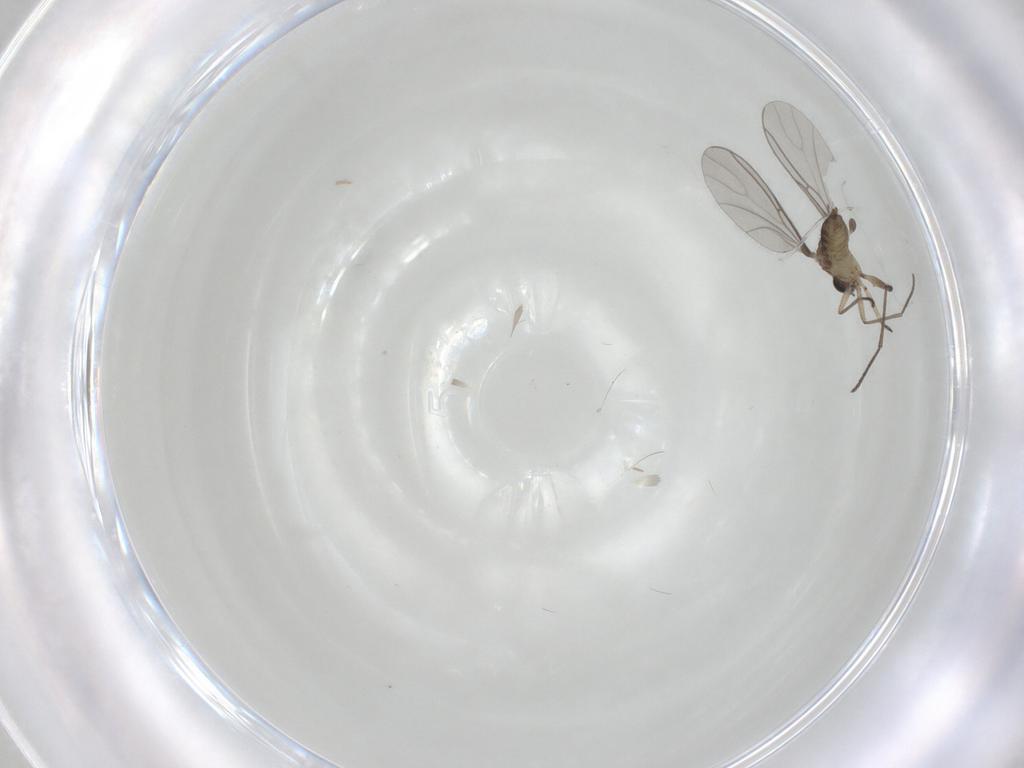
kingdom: Animalia
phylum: Arthropoda
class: Insecta
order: Diptera
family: Sciaridae
